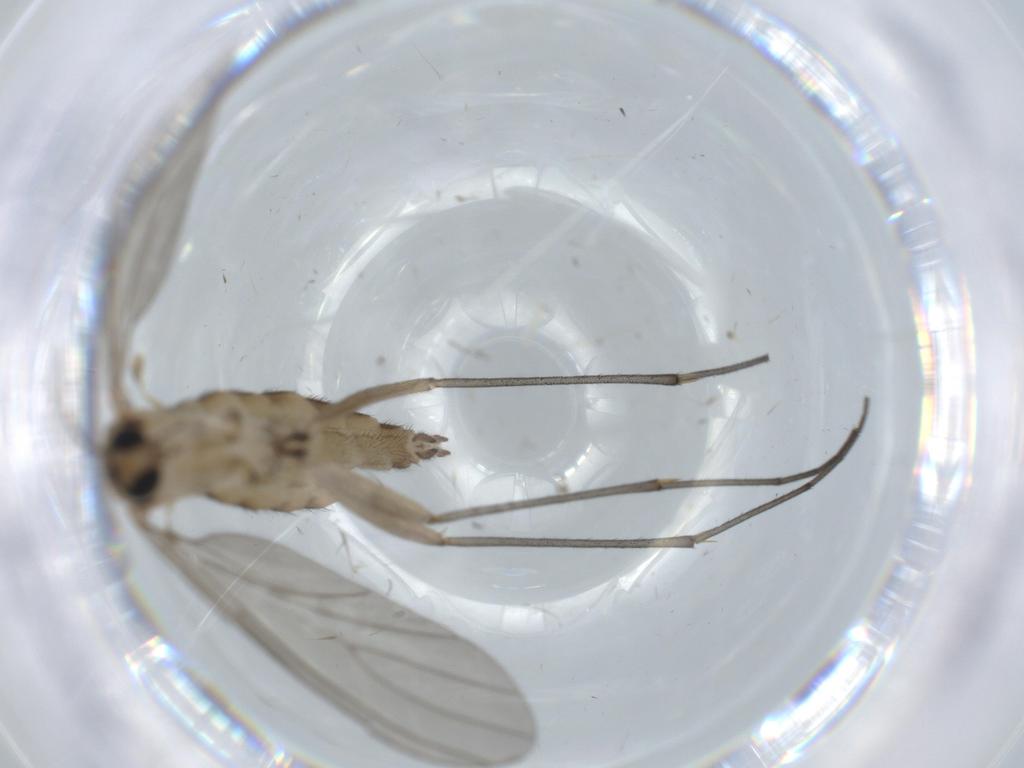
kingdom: Animalia
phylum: Arthropoda
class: Insecta
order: Diptera
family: Sciaridae
